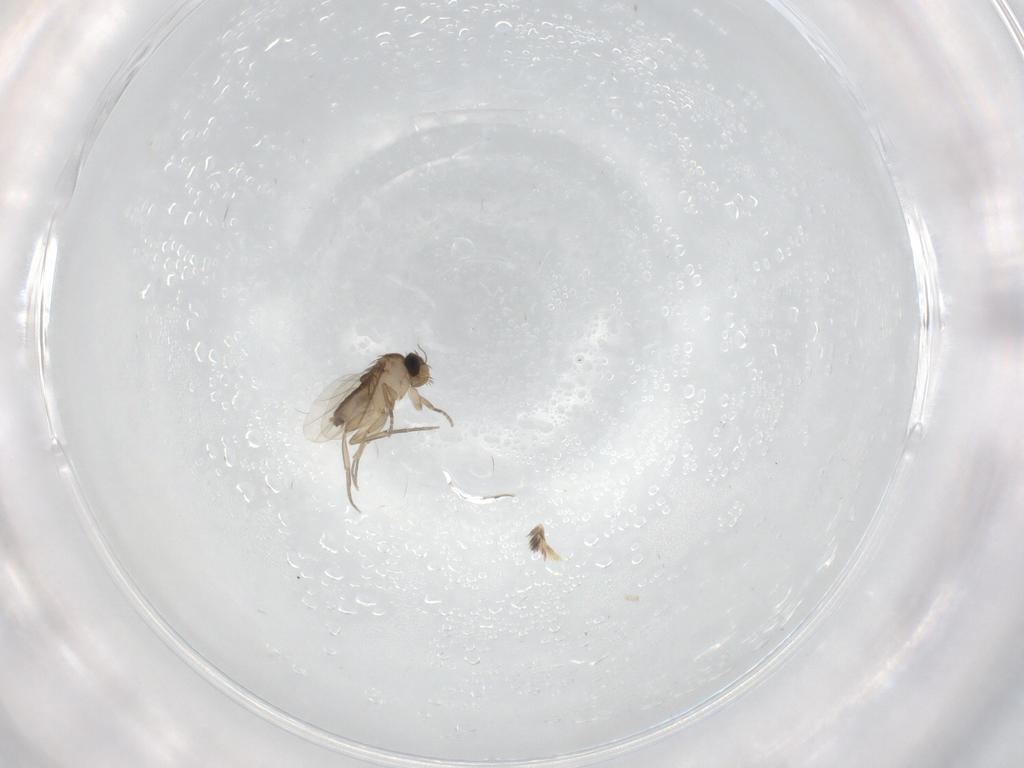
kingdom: Animalia
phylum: Arthropoda
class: Insecta
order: Diptera
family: Phoridae
